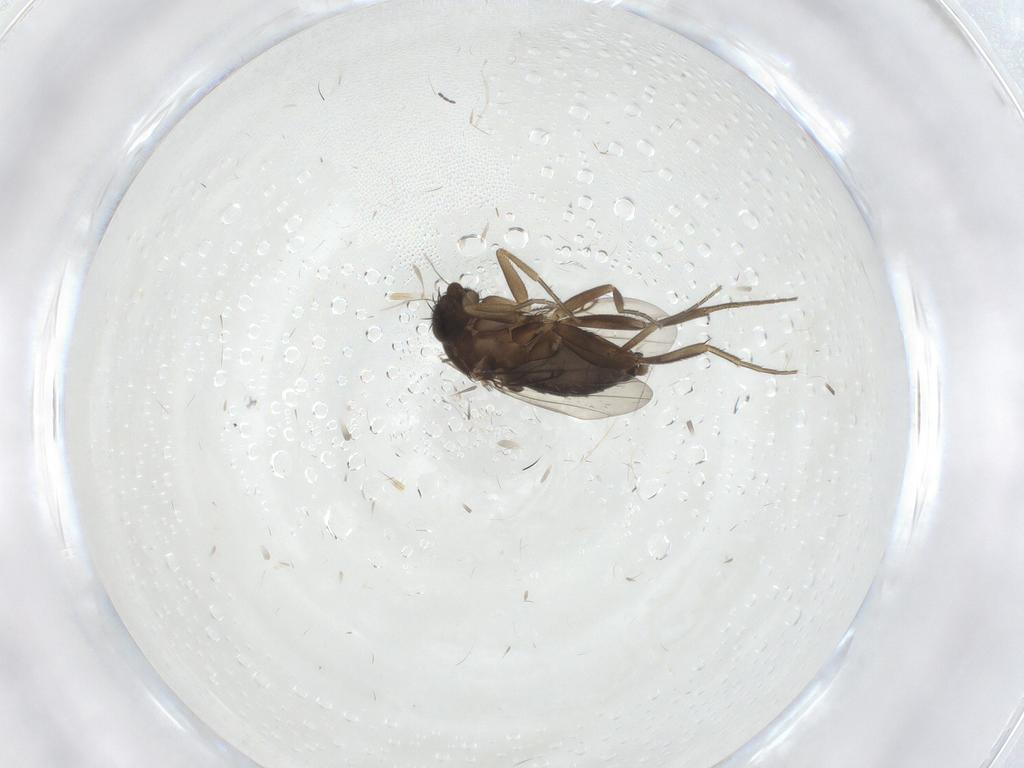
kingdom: Animalia
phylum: Arthropoda
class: Insecta
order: Diptera
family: Phoridae
